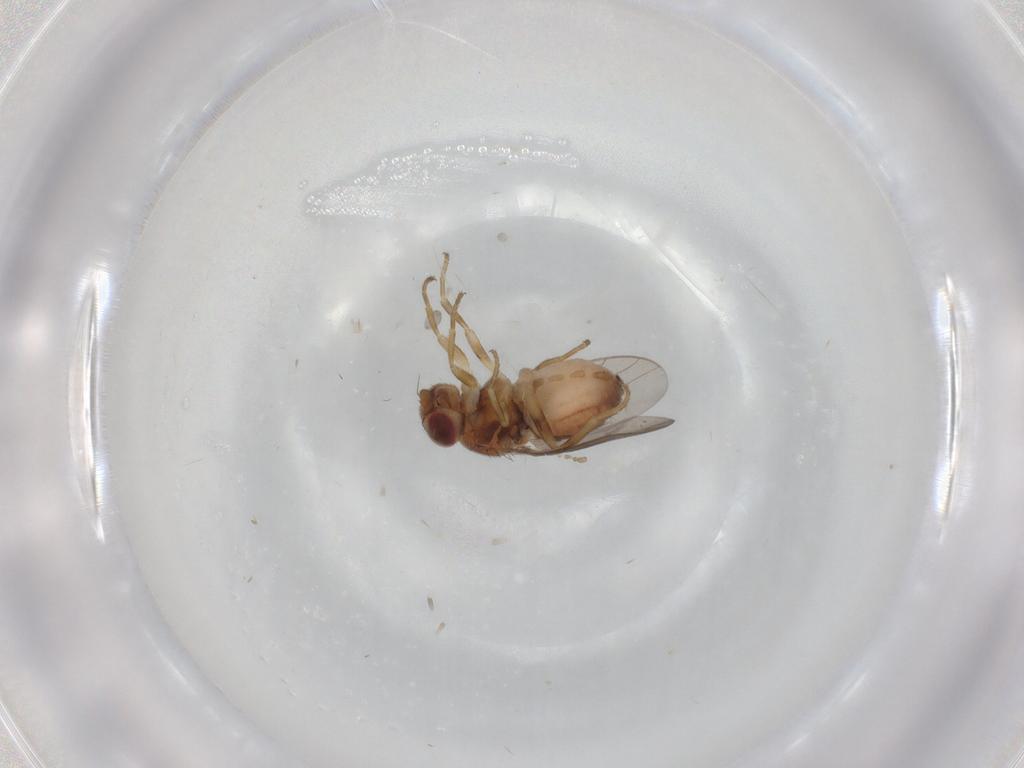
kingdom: Animalia
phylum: Arthropoda
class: Insecta
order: Diptera
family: Chloropidae
